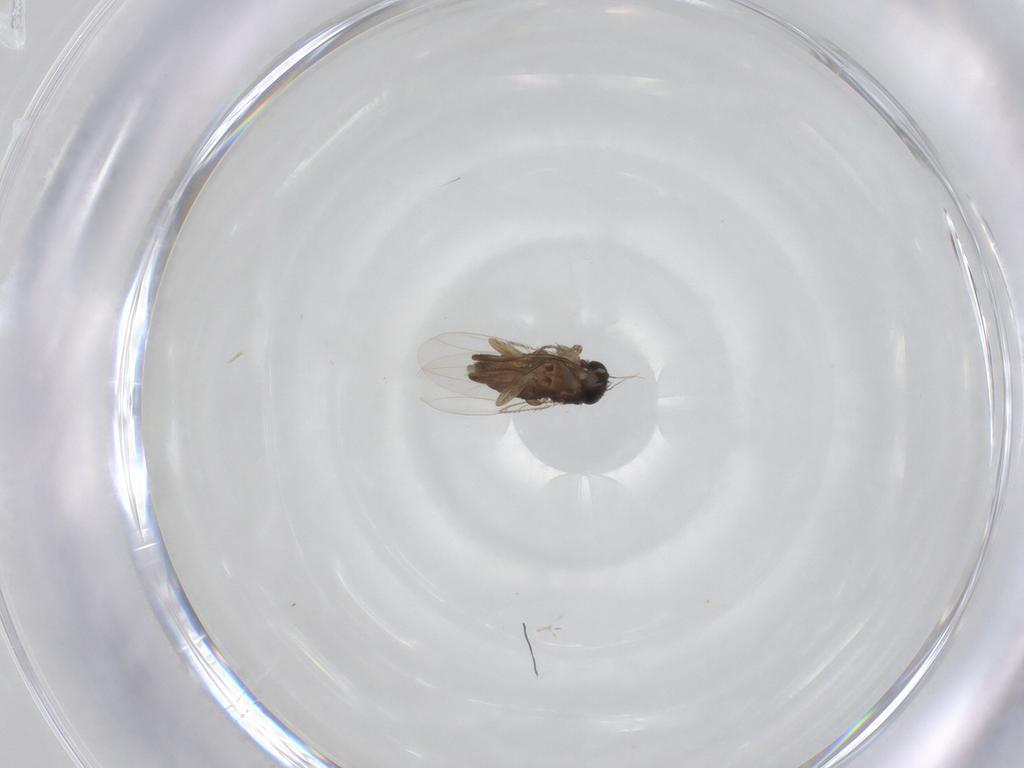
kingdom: Animalia
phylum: Arthropoda
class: Insecta
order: Diptera
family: Phoridae
